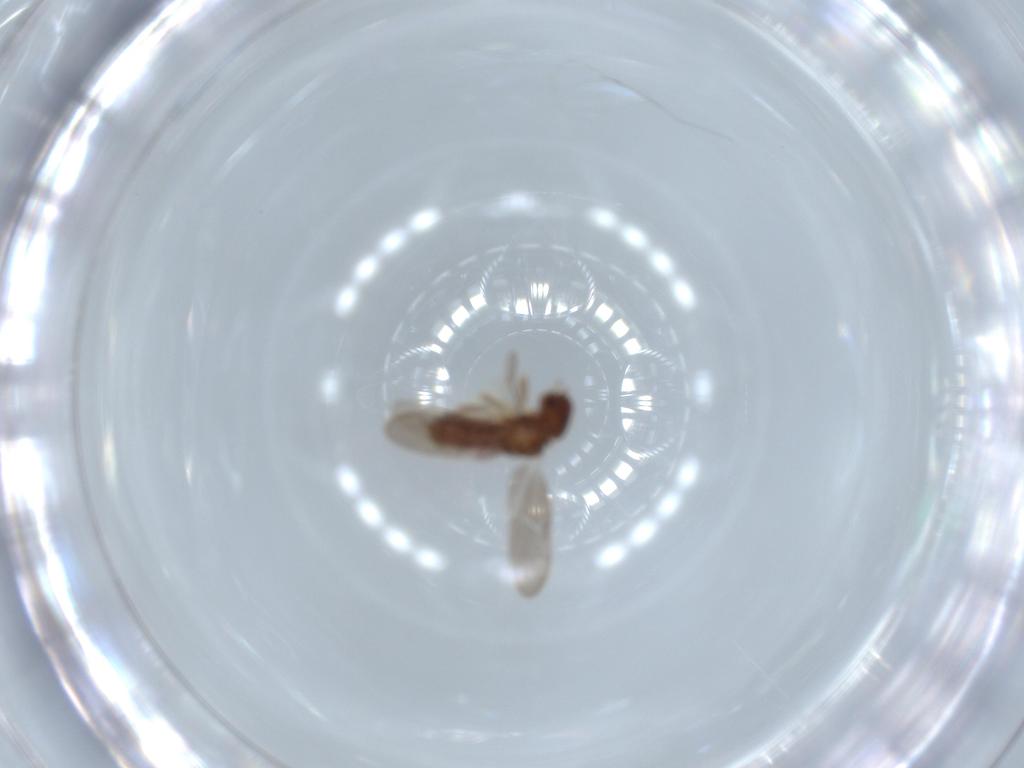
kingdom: Animalia
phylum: Arthropoda
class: Insecta
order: Psocodea
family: Archipsocidae
